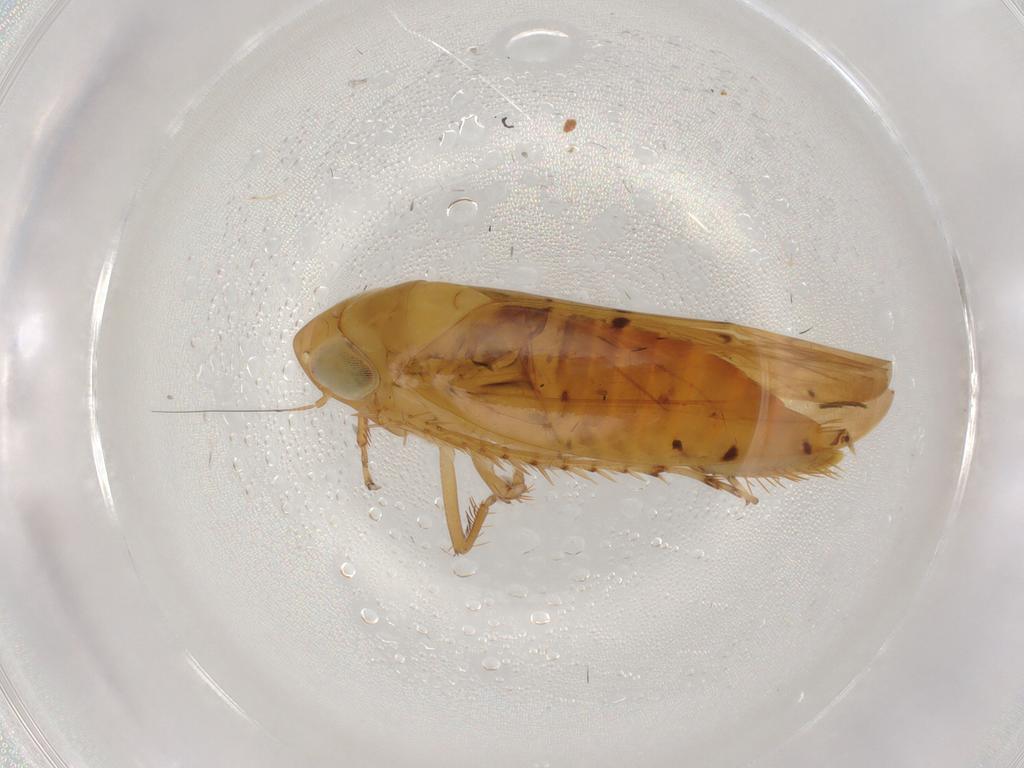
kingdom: Animalia
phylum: Arthropoda
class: Insecta
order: Hemiptera
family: Cicadellidae
